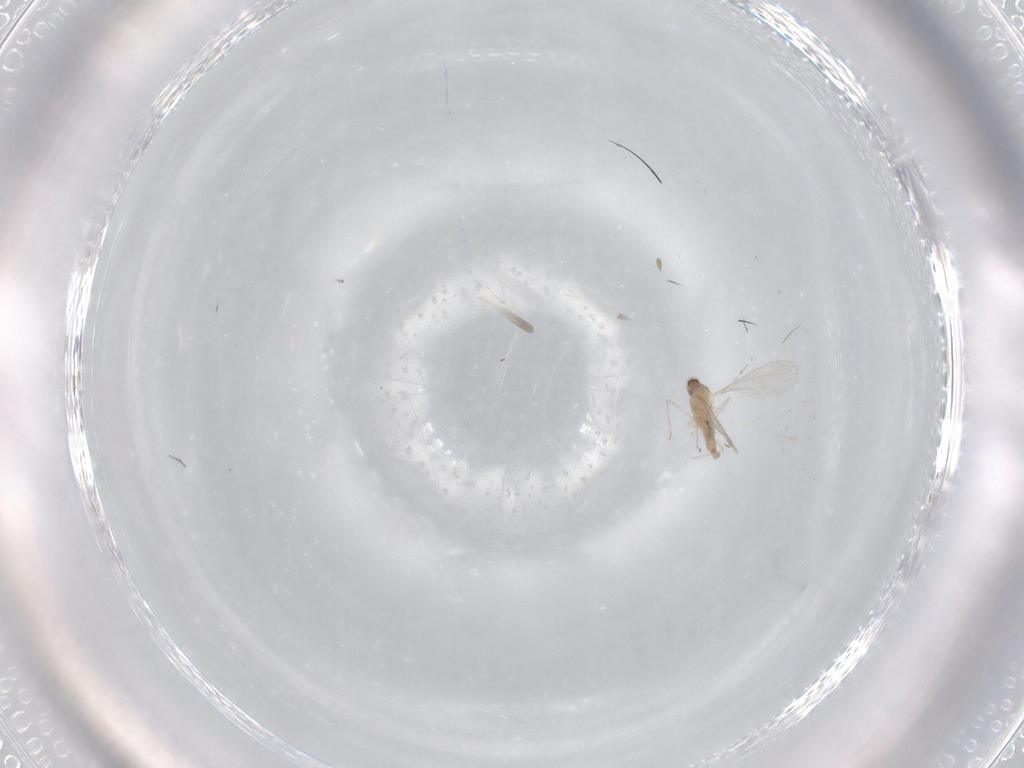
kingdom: Animalia
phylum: Arthropoda
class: Insecta
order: Diptera
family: Cecidomyiidae
